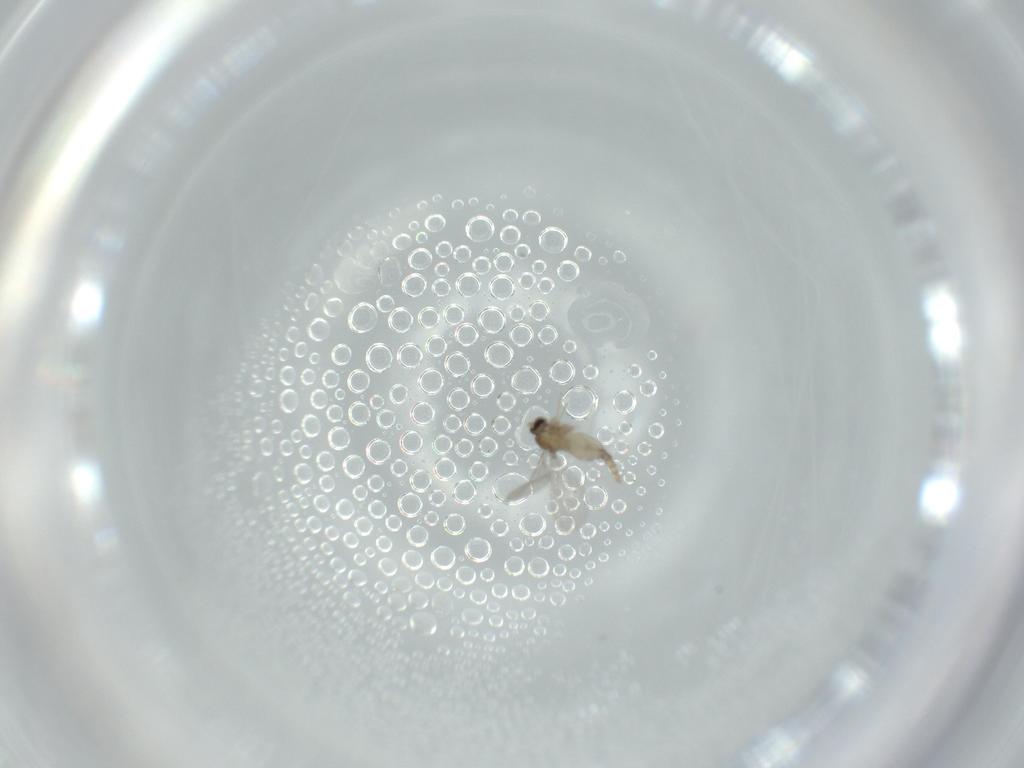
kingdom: Animalia
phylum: Arthropoda
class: Insecta
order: Diptera
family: Cecidomyiidae
